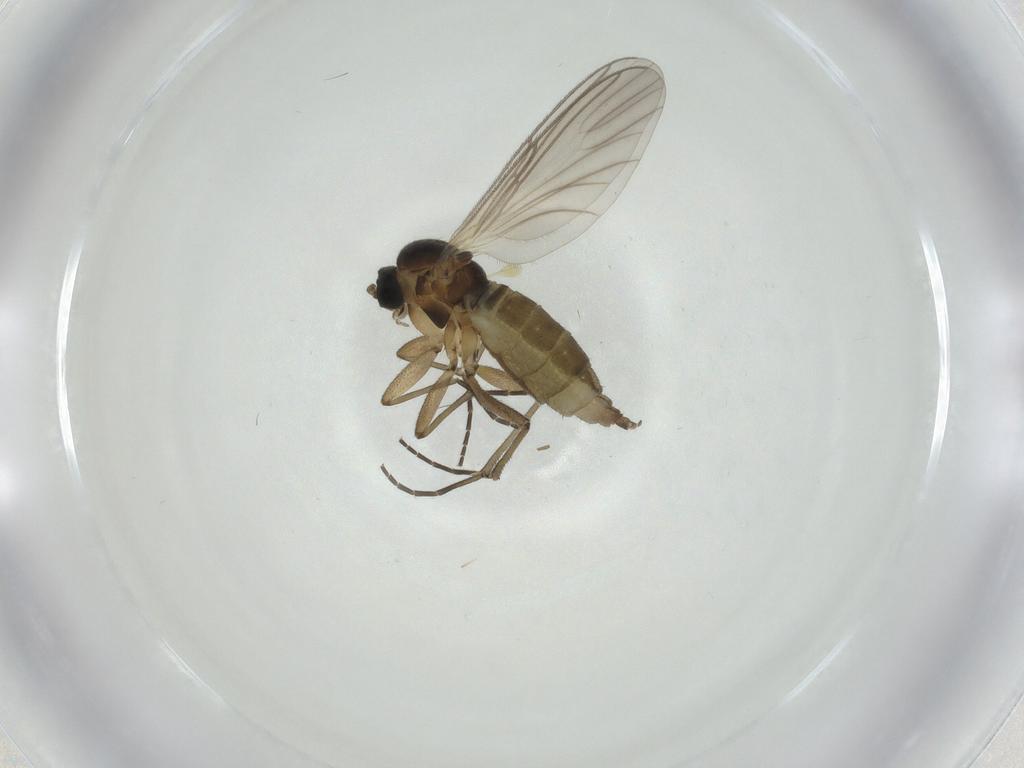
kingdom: Animalia
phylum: Arthropoda
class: Insecta
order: Diptera
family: Sciaridae
